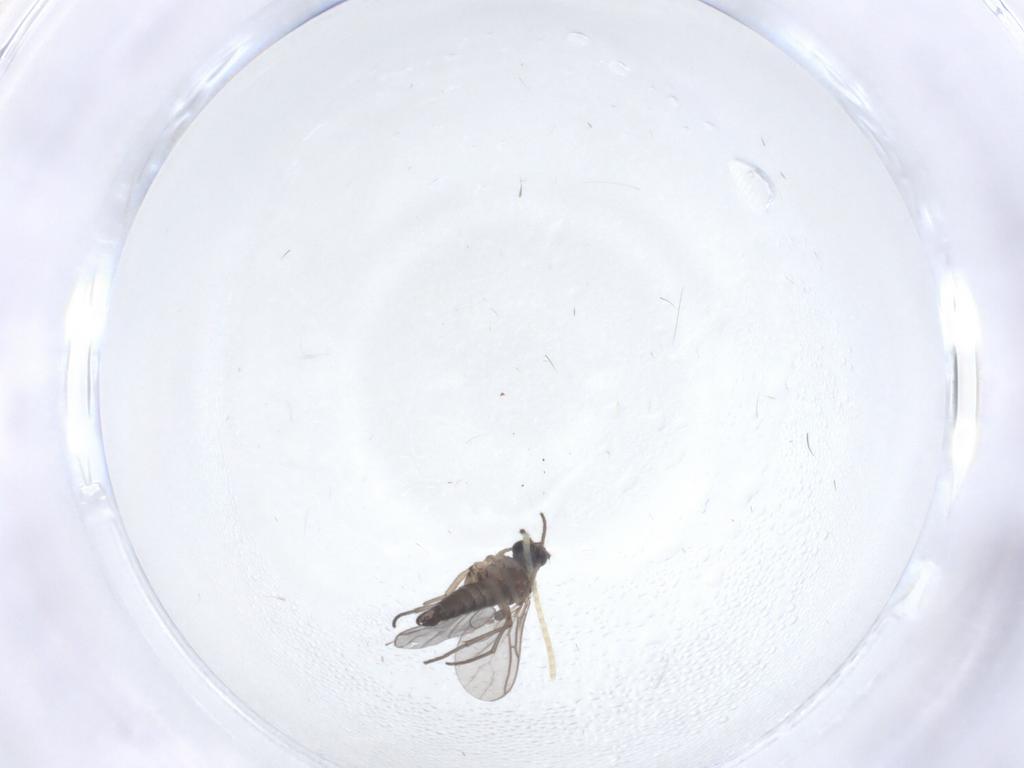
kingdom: Animalia
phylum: Arthropoda
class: Insecta
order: Diptera
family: Sciaridae
